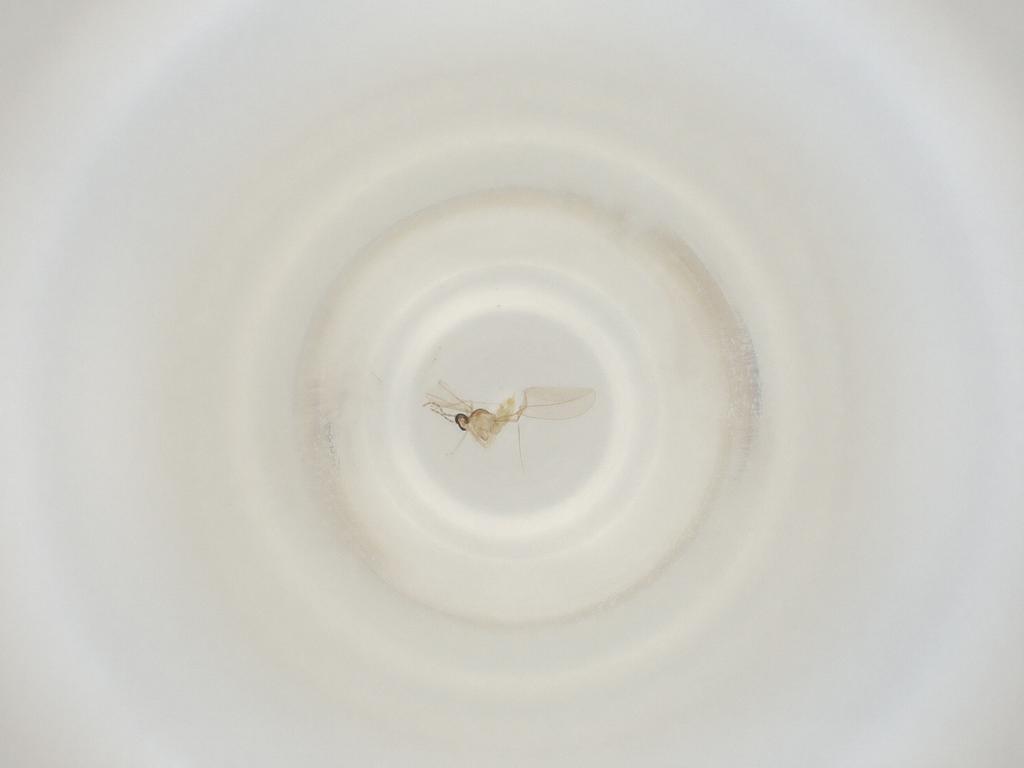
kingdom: Animalia
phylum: Arthropoda
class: Insecta
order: Diptera
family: Cecidomyiidae
